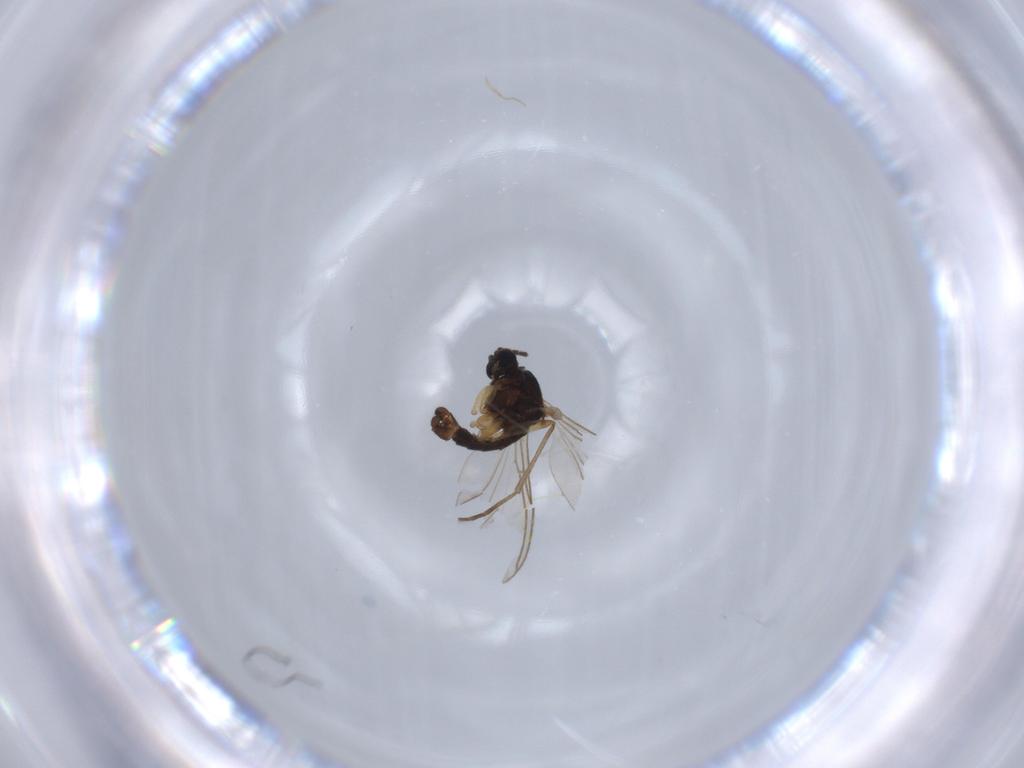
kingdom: Animalia
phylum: Arthropoda
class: Insecta
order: Diptera
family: Sciaridae
